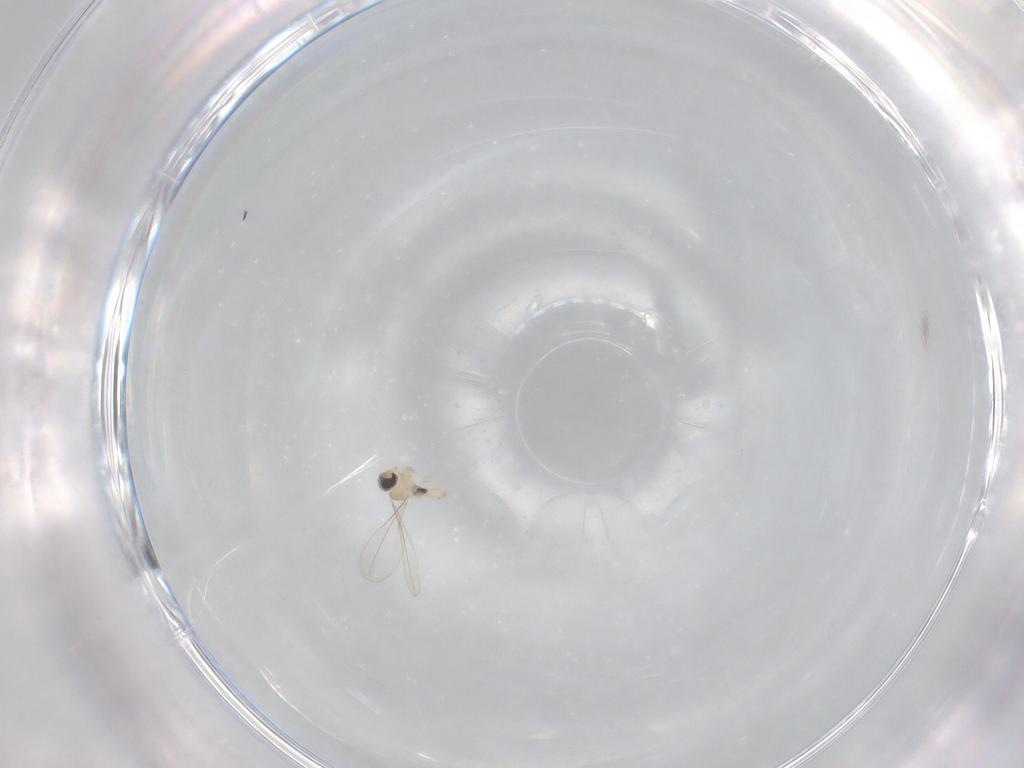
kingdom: Animalia
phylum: Arthropoda
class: Insecta
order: Diptera
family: Cecidomyiidae
